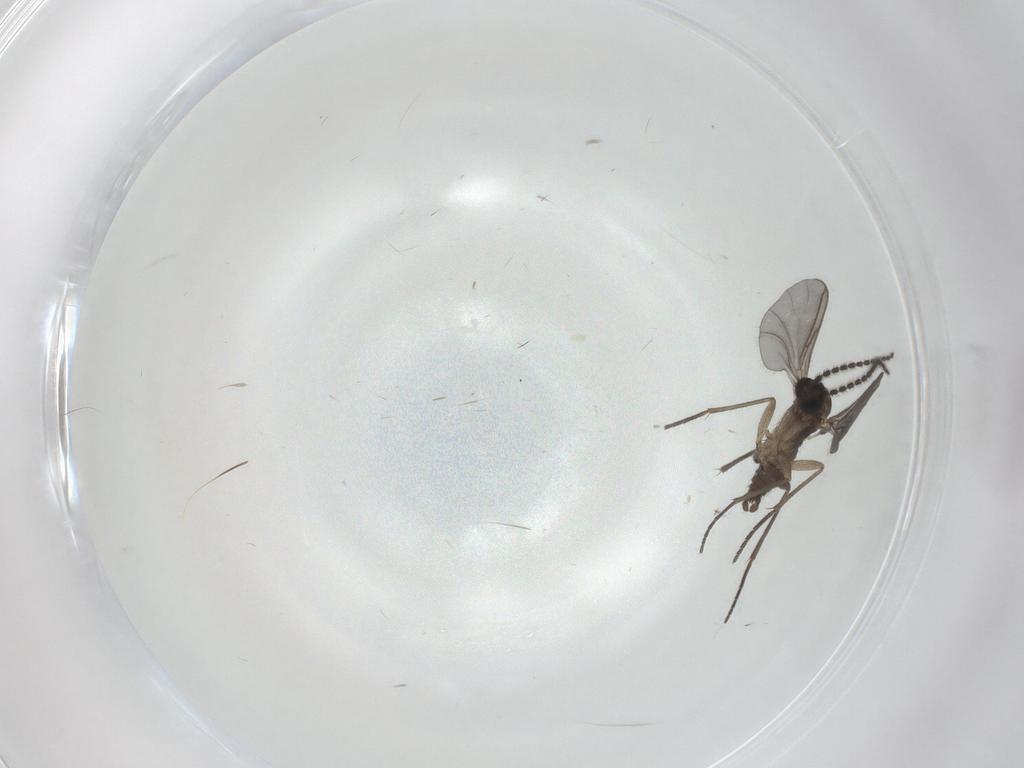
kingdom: Animalia
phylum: Arthropoda
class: Insecta
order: Diptera
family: Sciaridae
